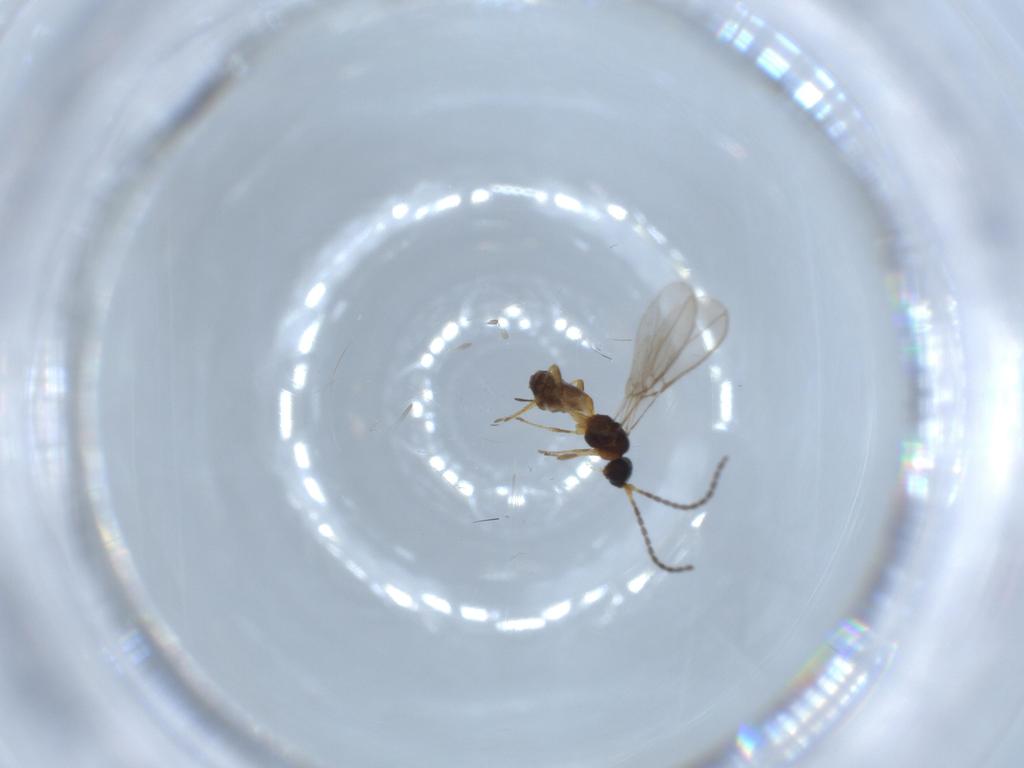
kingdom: Animalia
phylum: Arthropoda
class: Insecta
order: Hymenoptera
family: Braconidae
